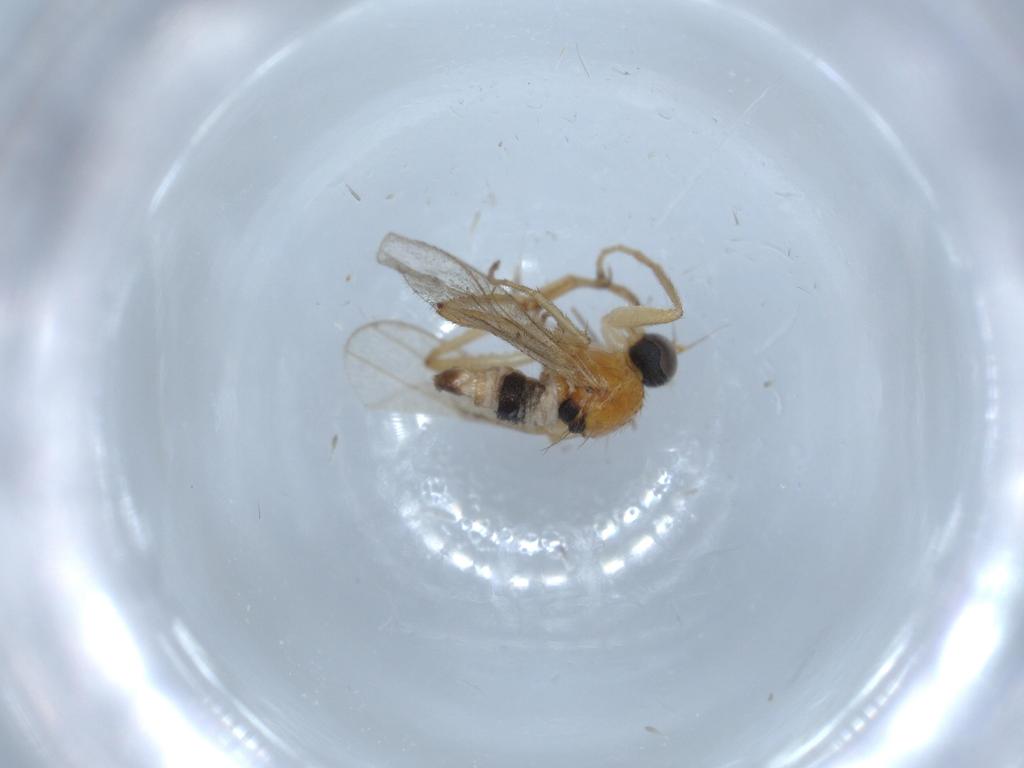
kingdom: Animalia
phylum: Arthropoda
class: Insecta
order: Diptera
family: Hybotidae
